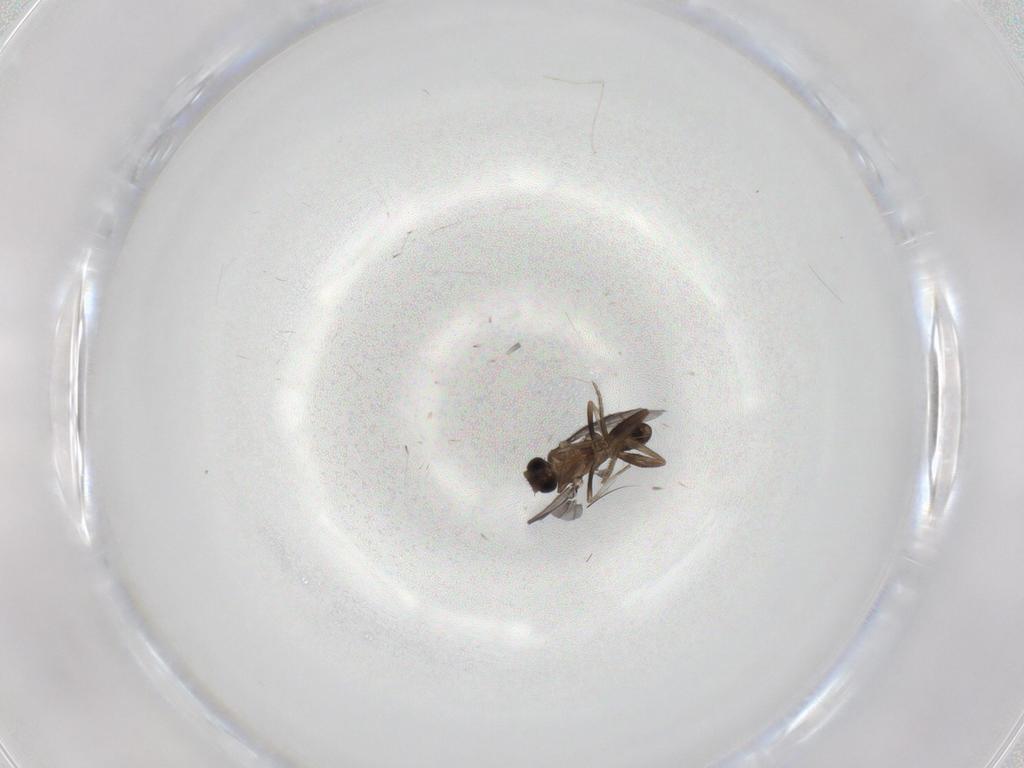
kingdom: Animalia
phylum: Arthropoda
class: Insecta
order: Diptera
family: Cecidomyiidae
